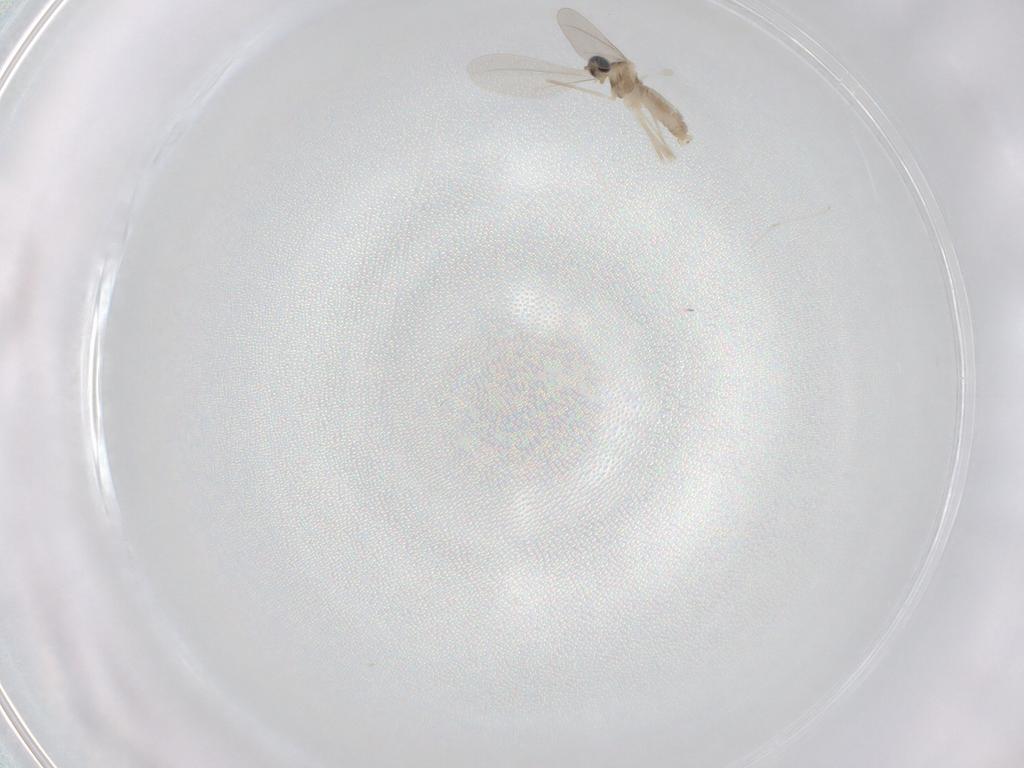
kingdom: Animalia
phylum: Arthropoda
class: Insecta
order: Diptera
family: Cecidomyiidae
